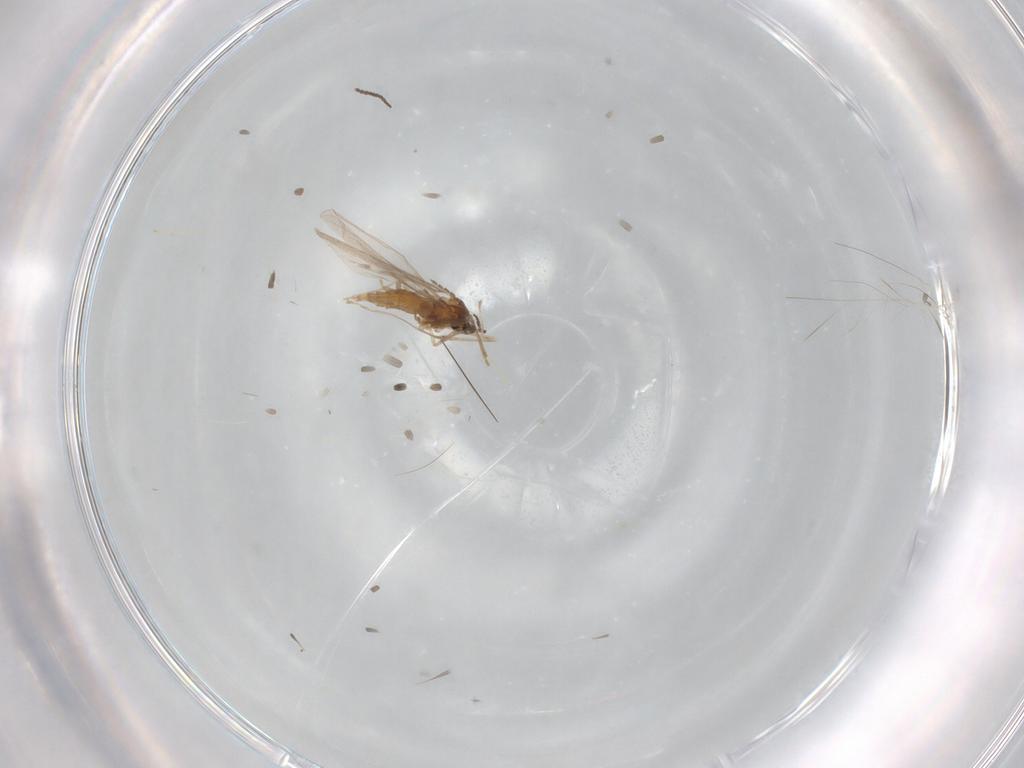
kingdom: Animalia
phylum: Arthropoda
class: Insecta
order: Diptera
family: Cecidomyiidae
